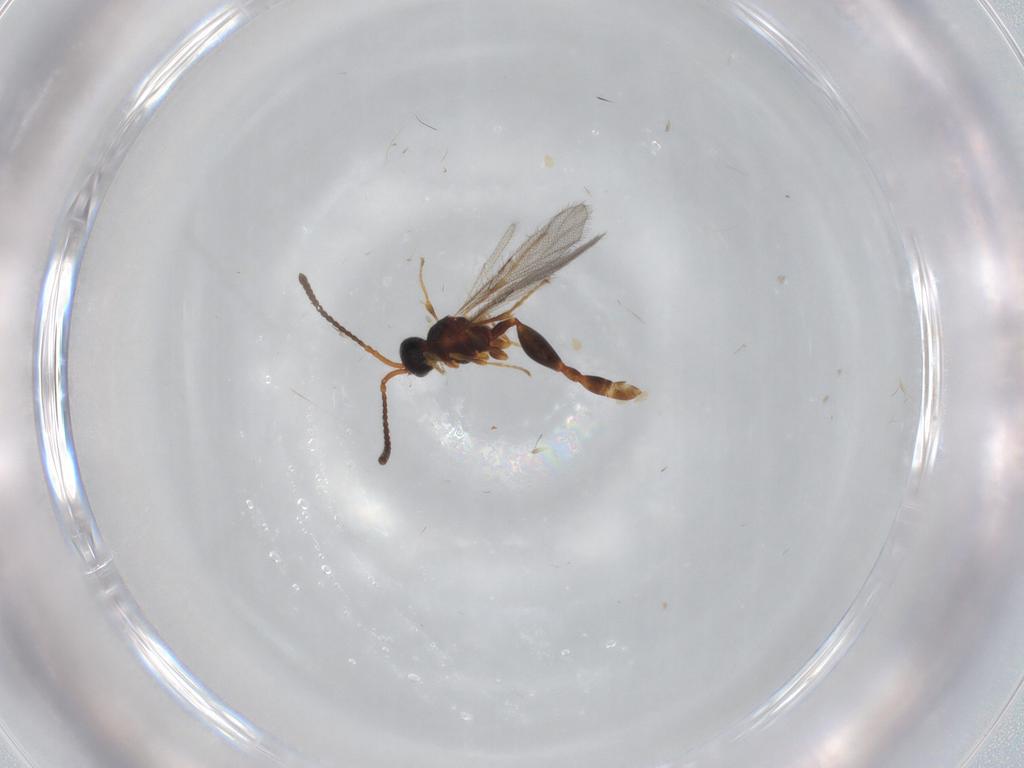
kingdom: Animalia
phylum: Arthropoda
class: Insecta
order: Hymenoptera
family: Diapriidae
